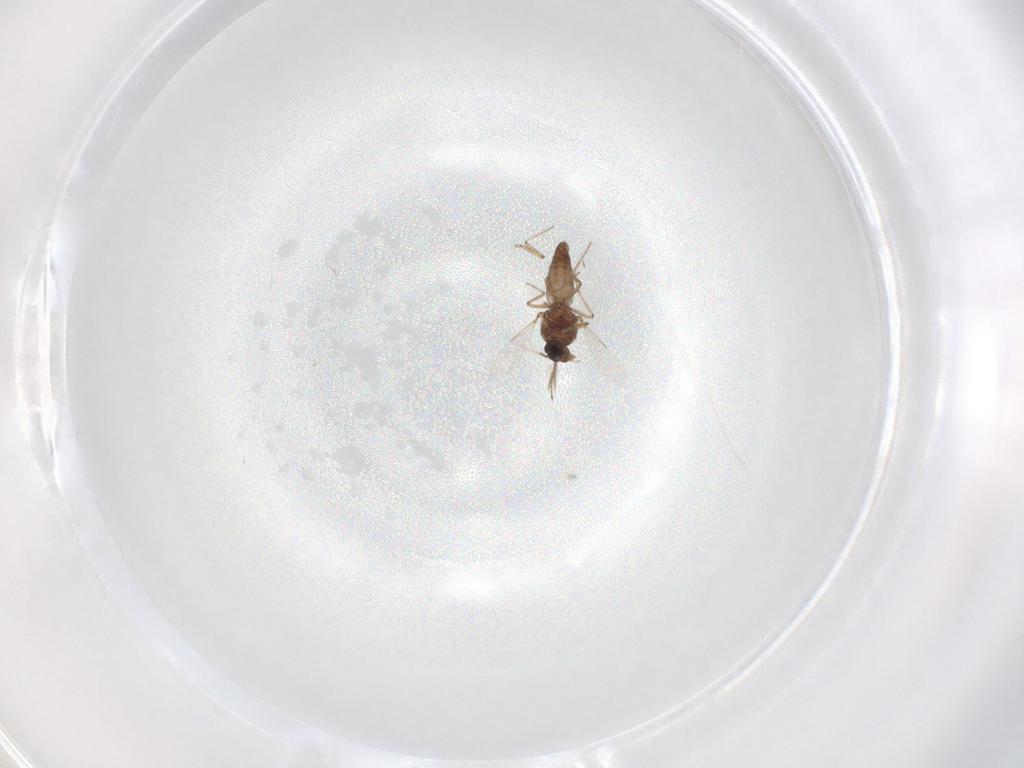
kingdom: Animalia
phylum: Arthropoda
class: Insecta
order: Diptera
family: Ceratopogonidae
